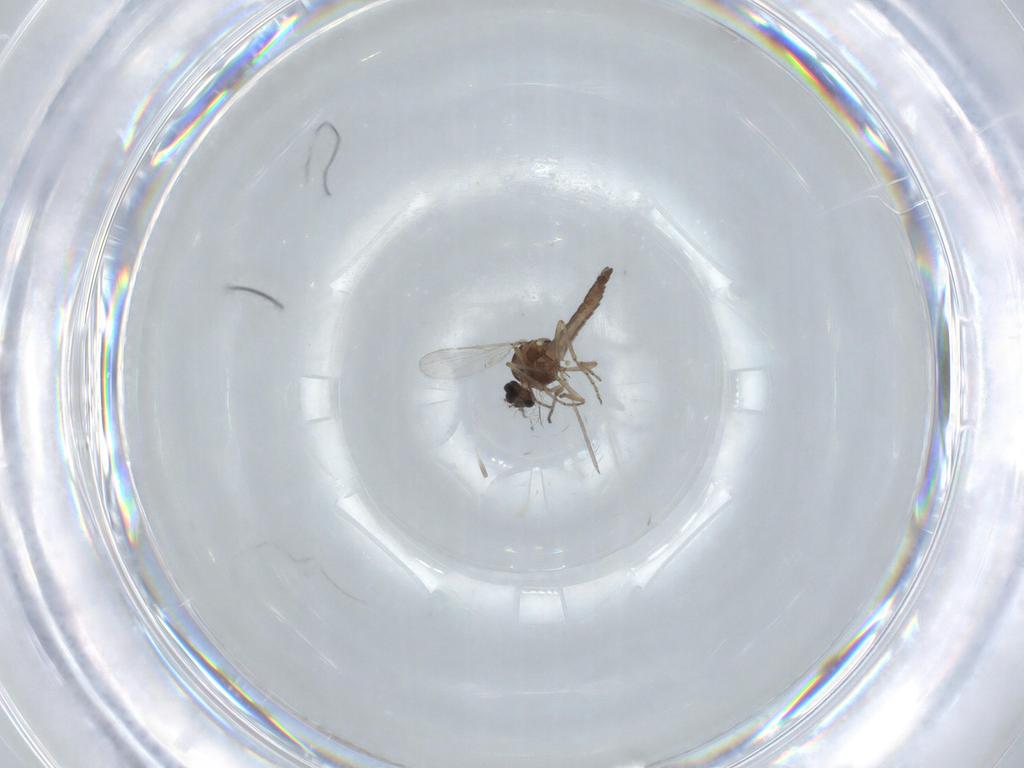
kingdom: Animalia
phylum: Arthropoda
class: Insecta
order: Diptera
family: Ceratopogonidae
